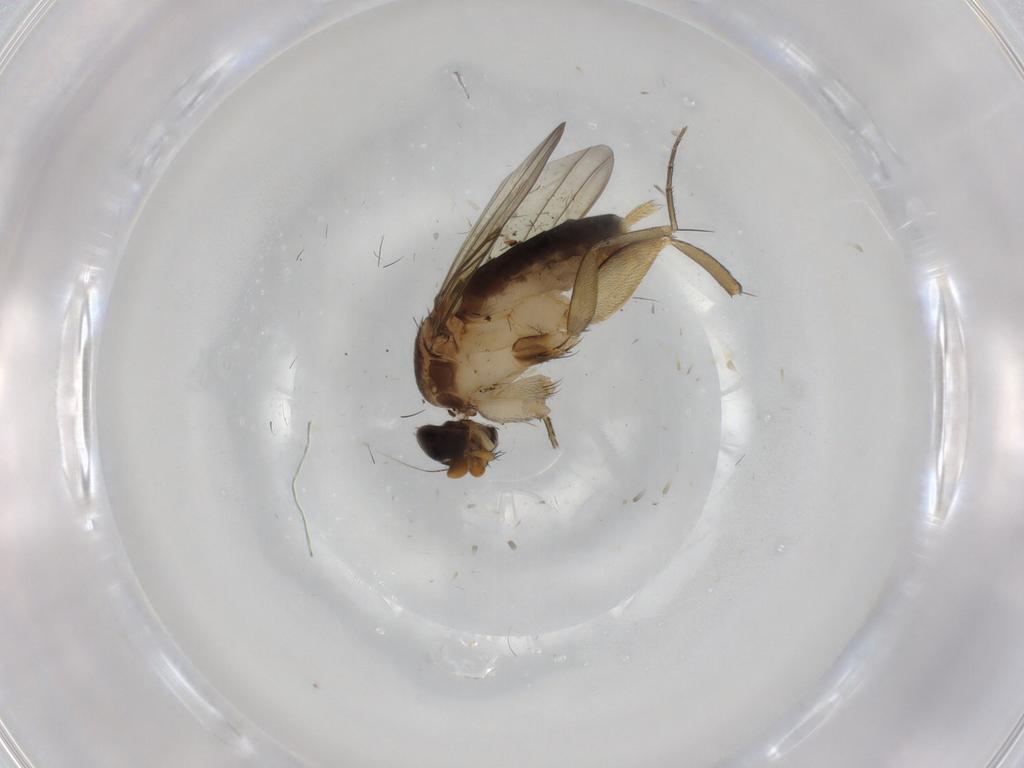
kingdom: Animalia
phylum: Arthropoda
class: Insecta
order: Diptera
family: Phoridae
